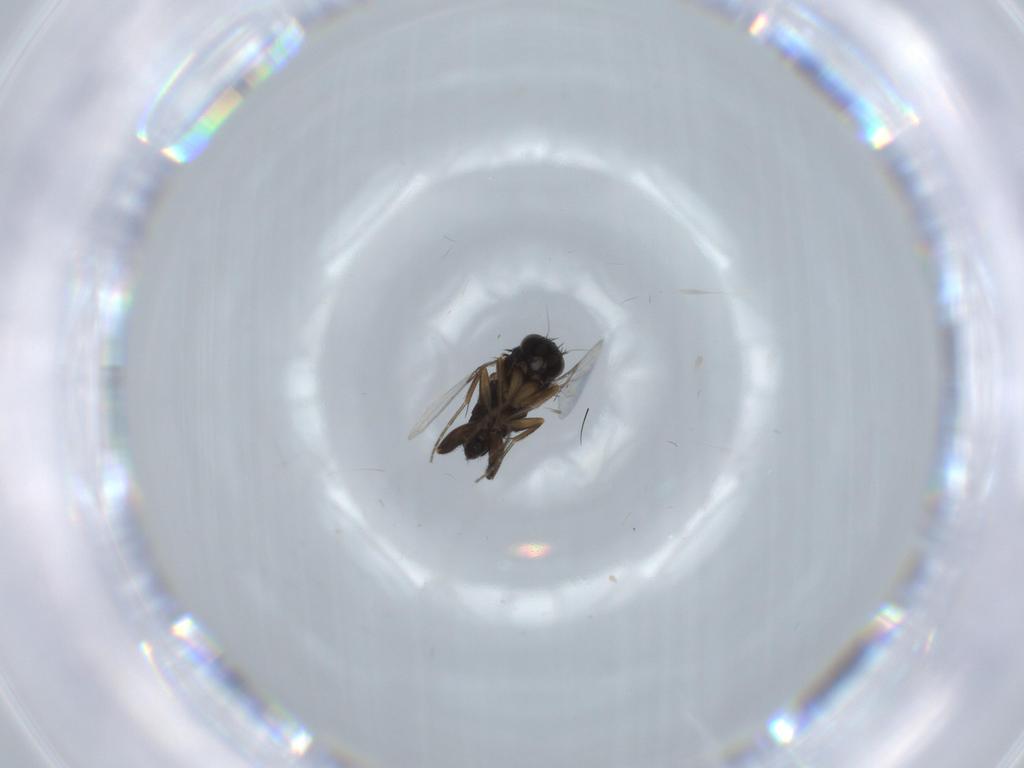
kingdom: Animalia
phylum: Arthropoda
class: Insecta
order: Diptera
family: Phoridae
